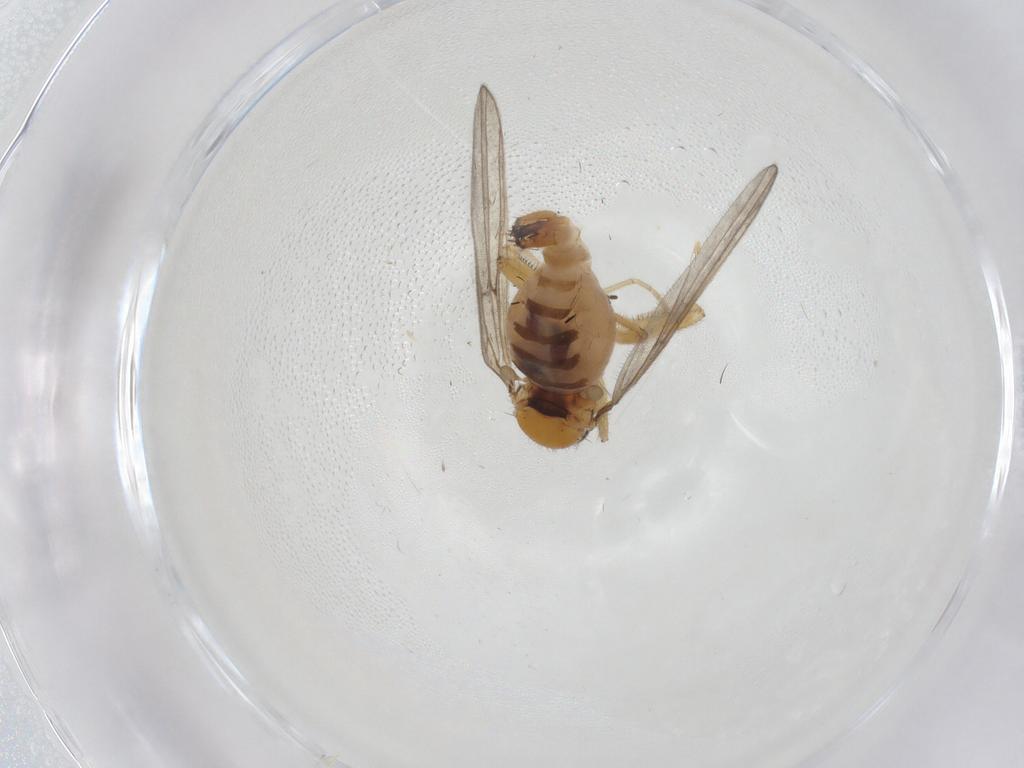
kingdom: Animalia
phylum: Arthropoda
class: Insecta
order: Diptera
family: Hybotidae
